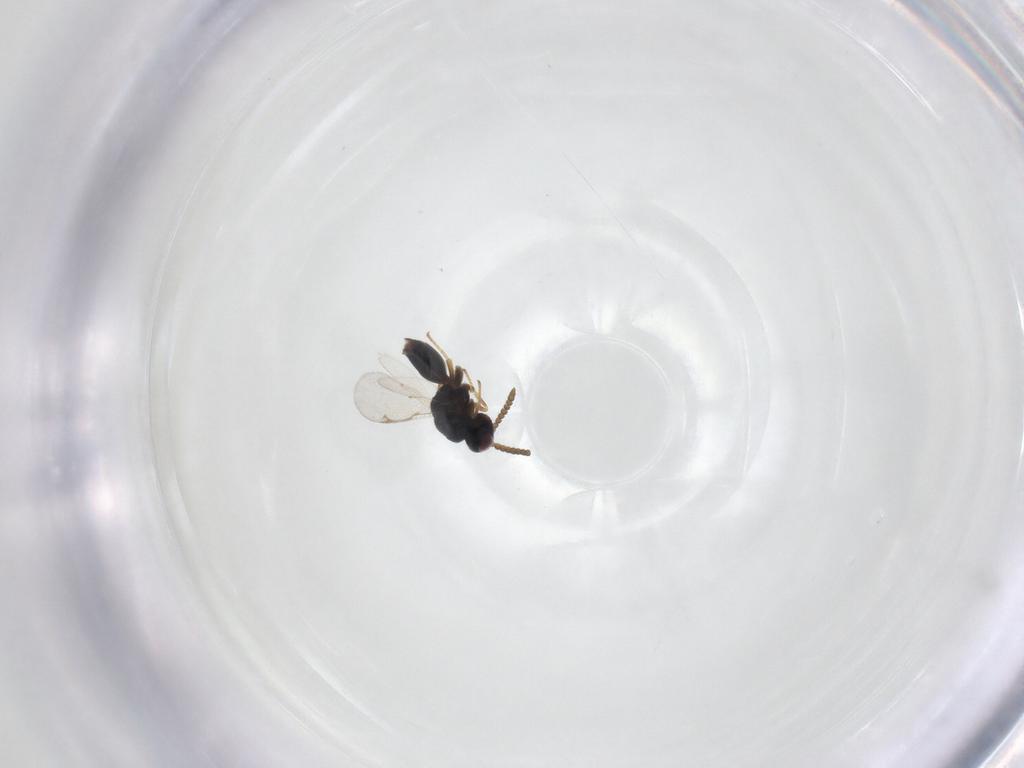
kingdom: Animalia
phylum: Arthropoda
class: Insecta
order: Hymenoptera
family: Chalcididae
